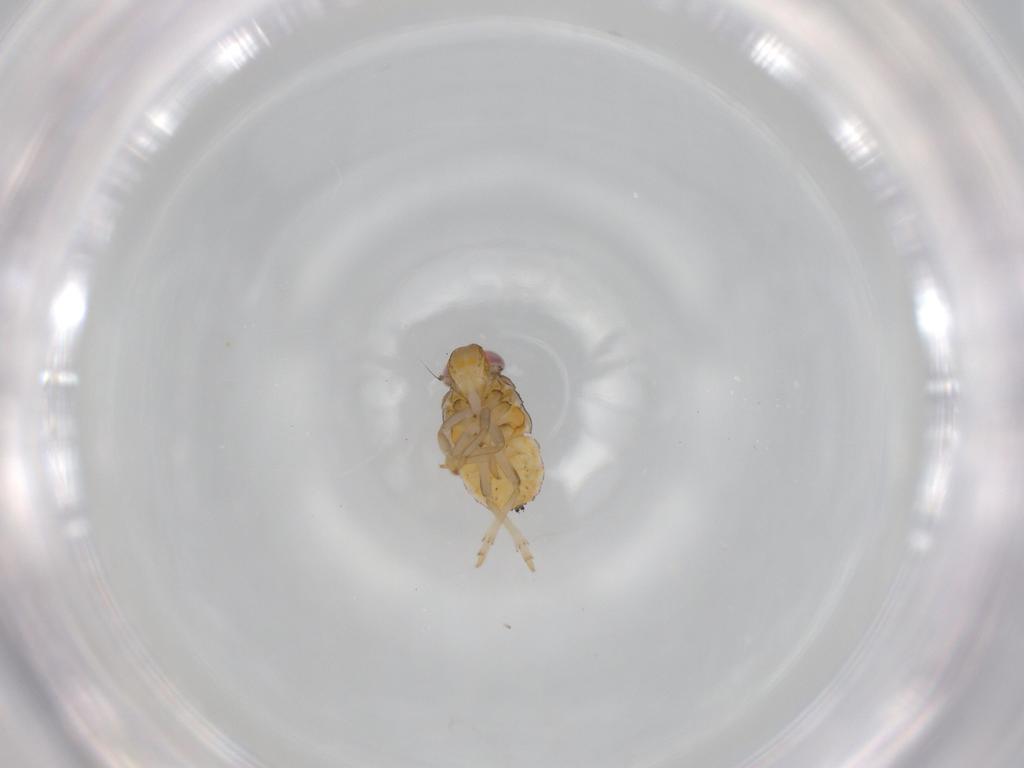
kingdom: Animalia
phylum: Arthropoda
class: Insecta
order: Hemiptera
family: Issidae
